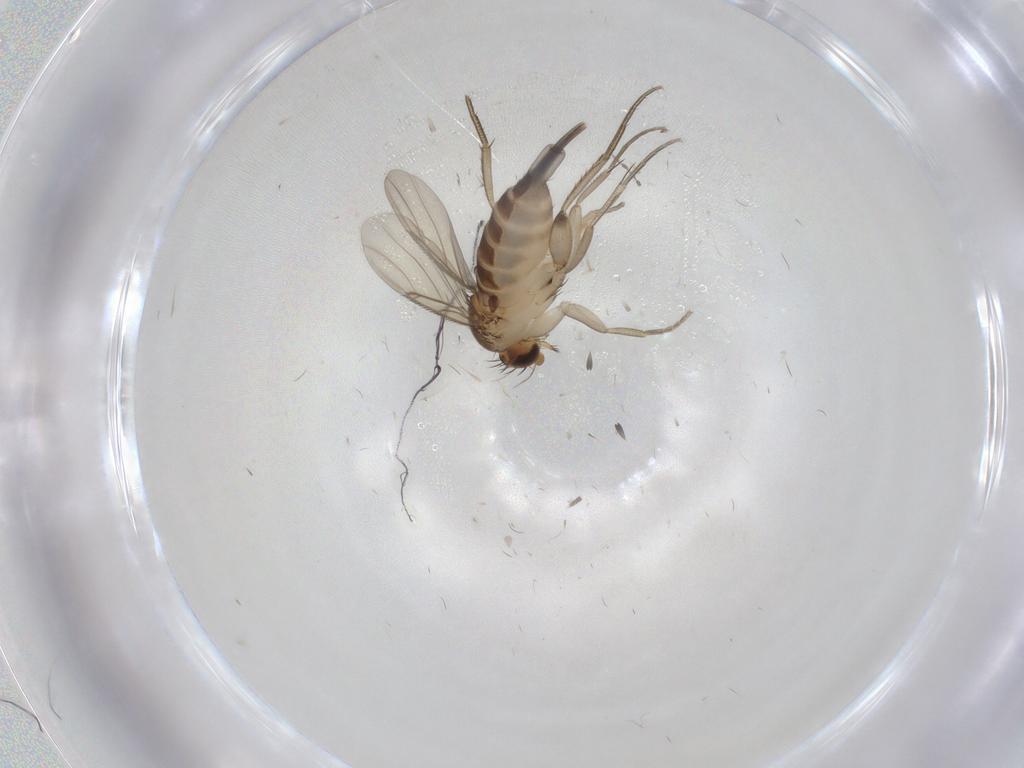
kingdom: Animalia
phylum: Arthropoda
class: Insecta
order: Diptera
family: Phoridae
